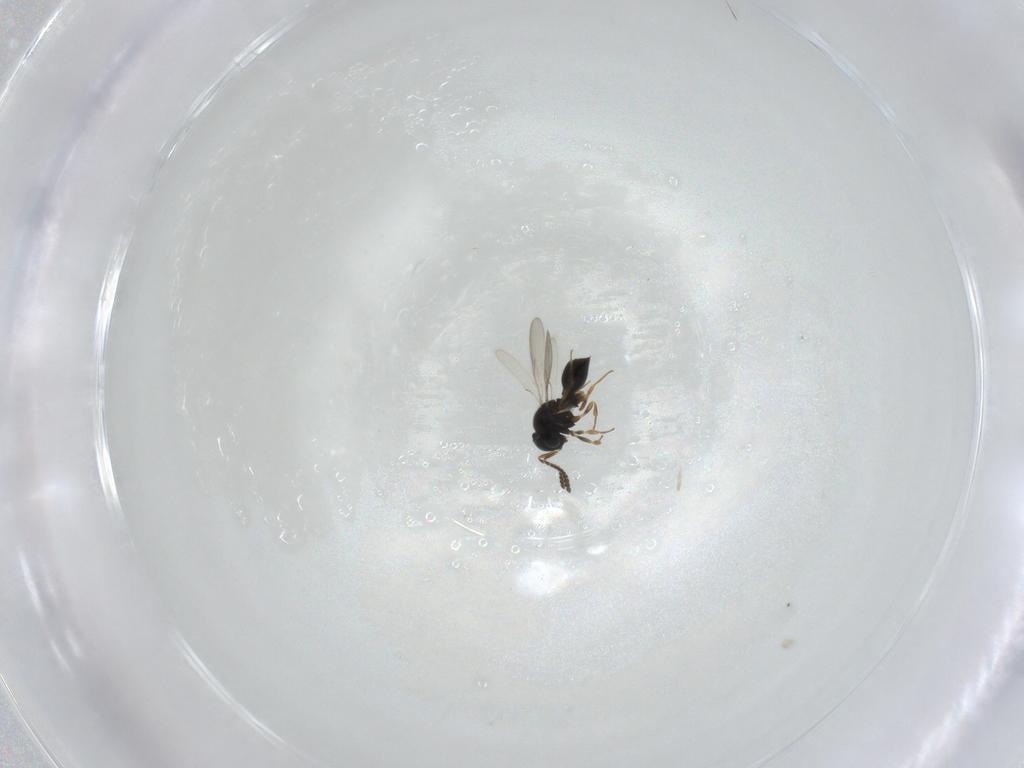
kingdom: Animalia
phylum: Arthropoda
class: Insecta
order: Hymenoptera
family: Scelionidae
